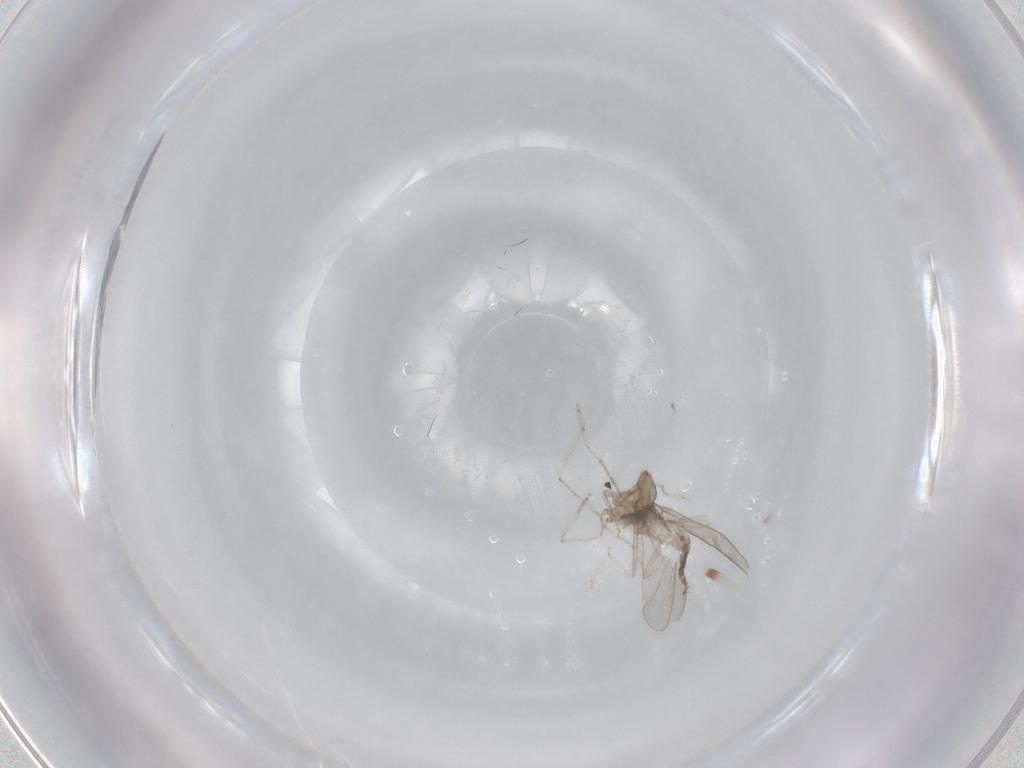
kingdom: Animalia
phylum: Arthropoda
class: Insecta
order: Diptera
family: Cecidomyiidae
